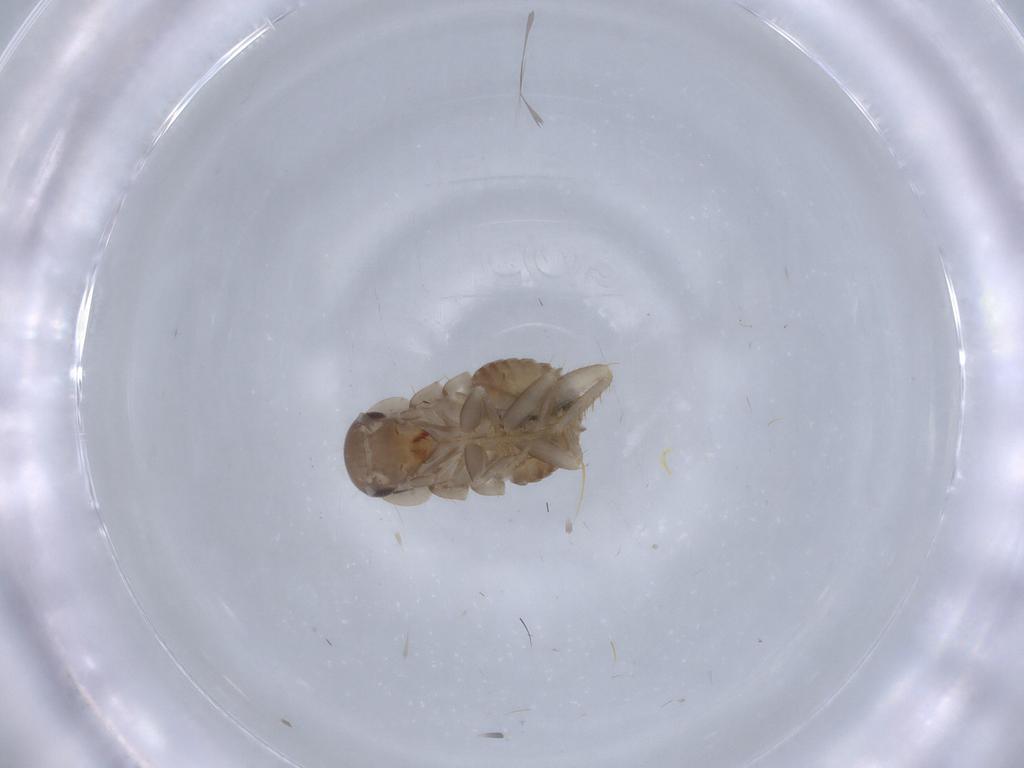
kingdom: Animalia
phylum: Arthropoda
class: Insecta
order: Blattodea
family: Ectobiidae
